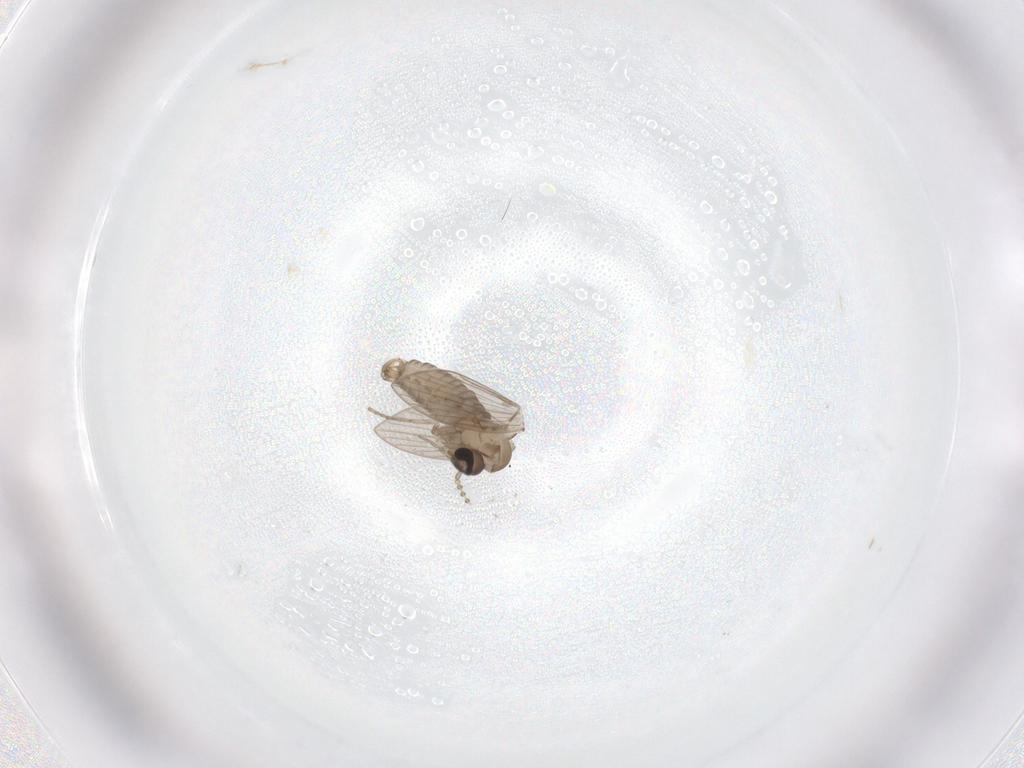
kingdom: Animalia
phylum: Arthropoda
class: Insecta
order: Diptera
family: Psychodidae
